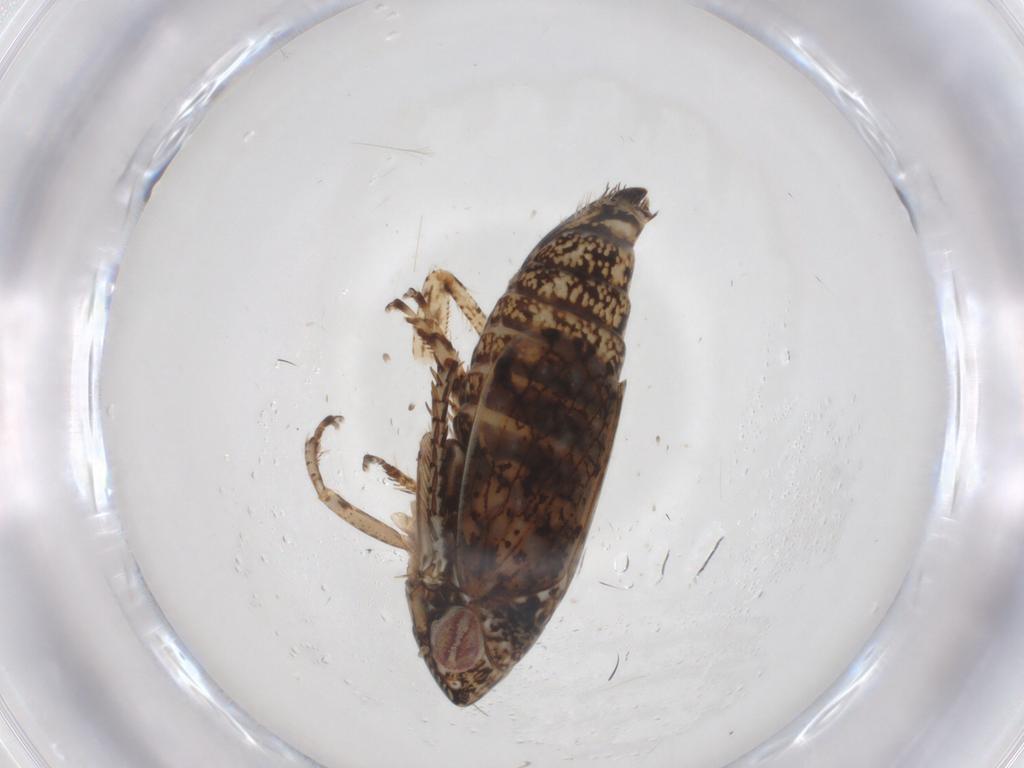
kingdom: Animalia
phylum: Arthropoda
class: Insecta
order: Hemiptera
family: Cicadellidae
